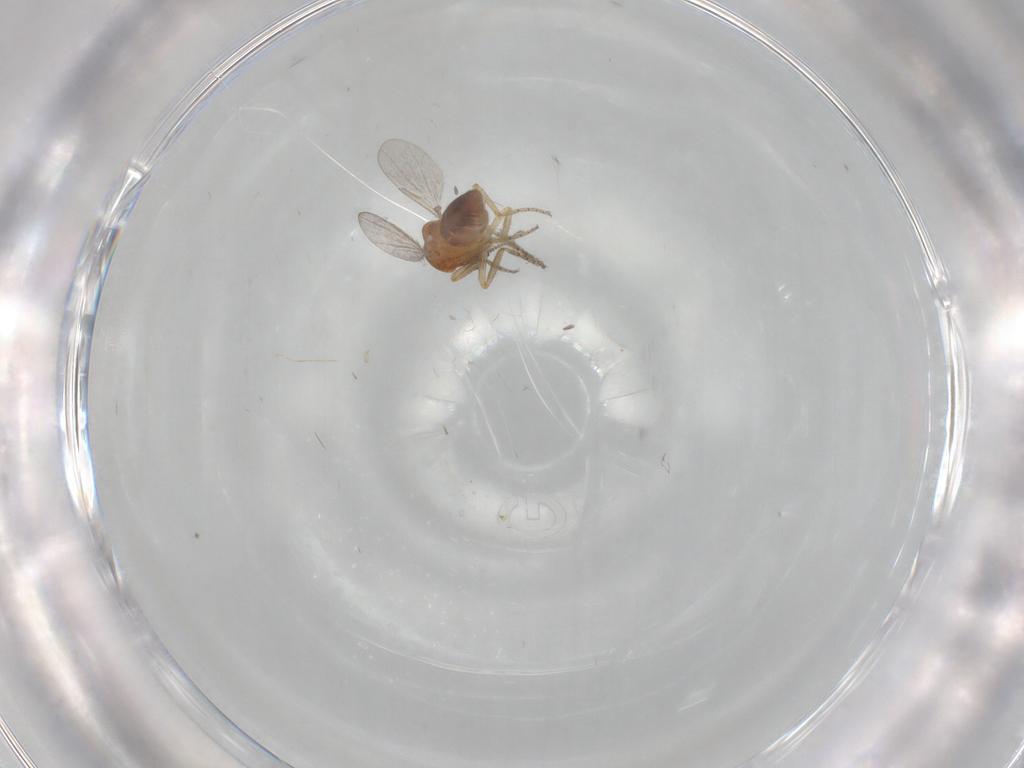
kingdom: Animalia
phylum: Arthropoda
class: Insecta
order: Diptera
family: Ceratopogonidae
